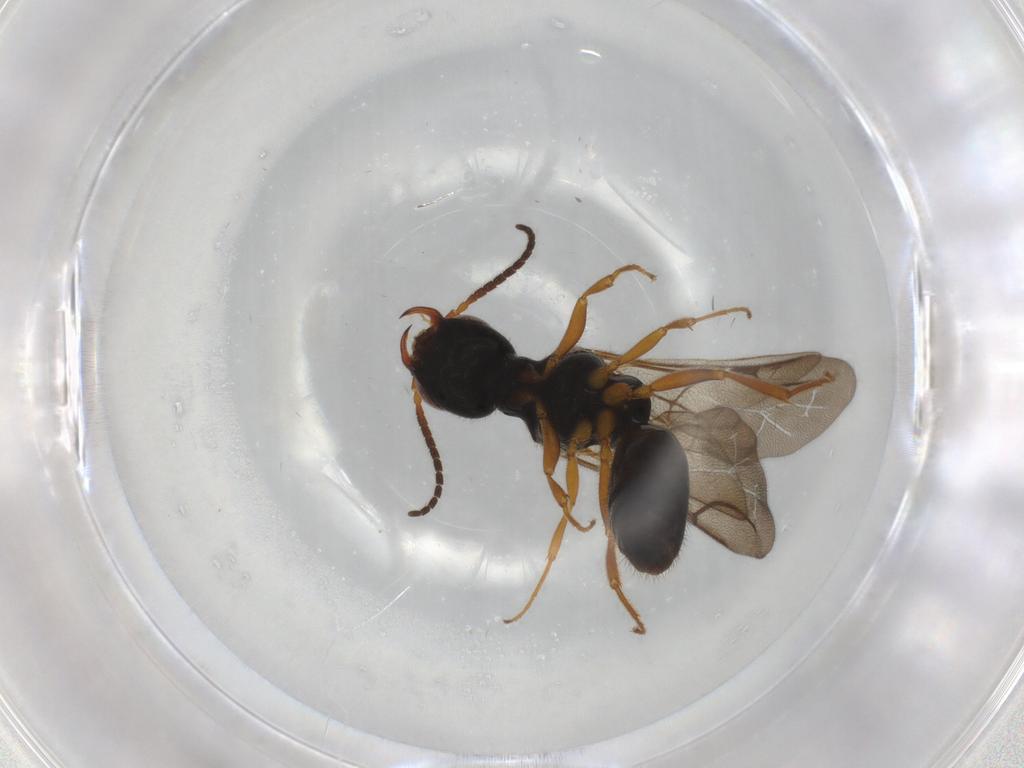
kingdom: Animalia
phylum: Arthropoda
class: Insecta
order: Hymenoptera
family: Bethylidae
